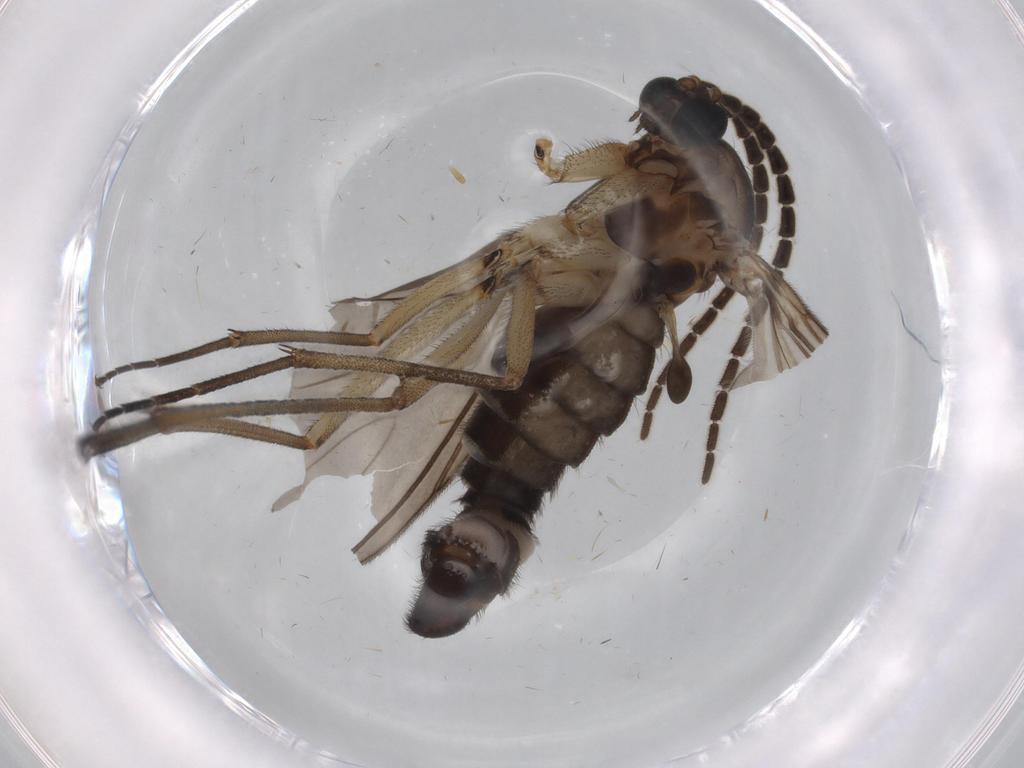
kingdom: Animalia
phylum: Arthropoda
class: Insecta
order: Diptera
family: Sciaridae
